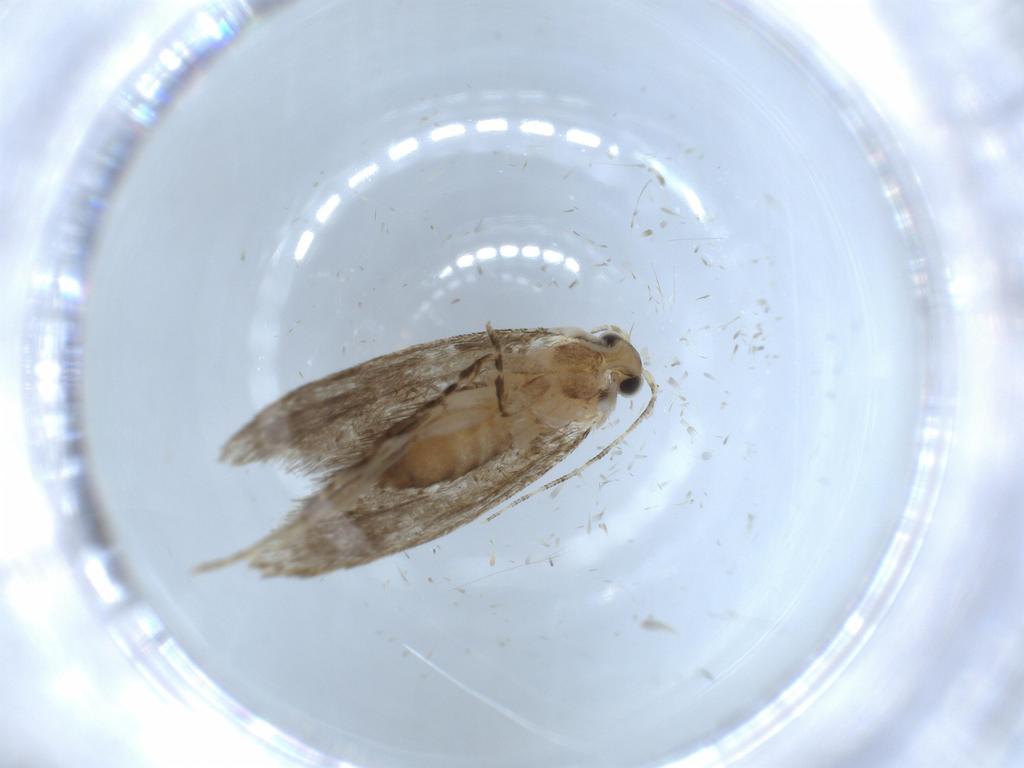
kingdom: Animalia
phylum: Arthropoda
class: Insecta
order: Lepidoptera
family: Tineidae
